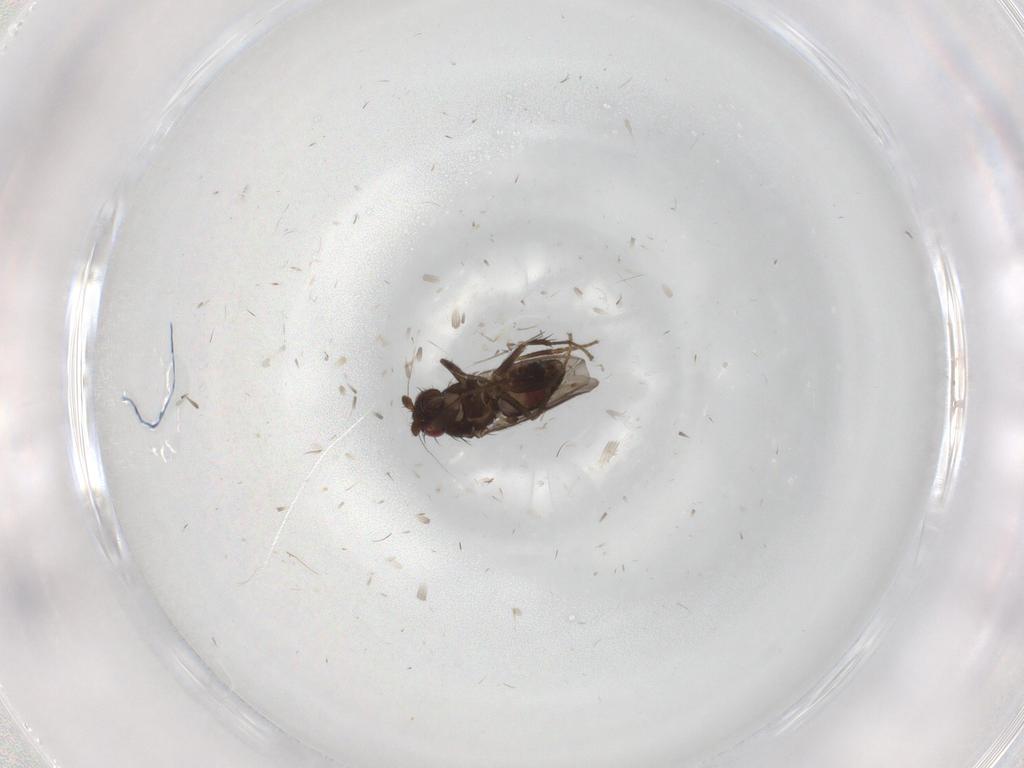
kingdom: Animalia
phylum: Arthropoda
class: Insecta
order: Diptera
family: Sphaeroceridae
